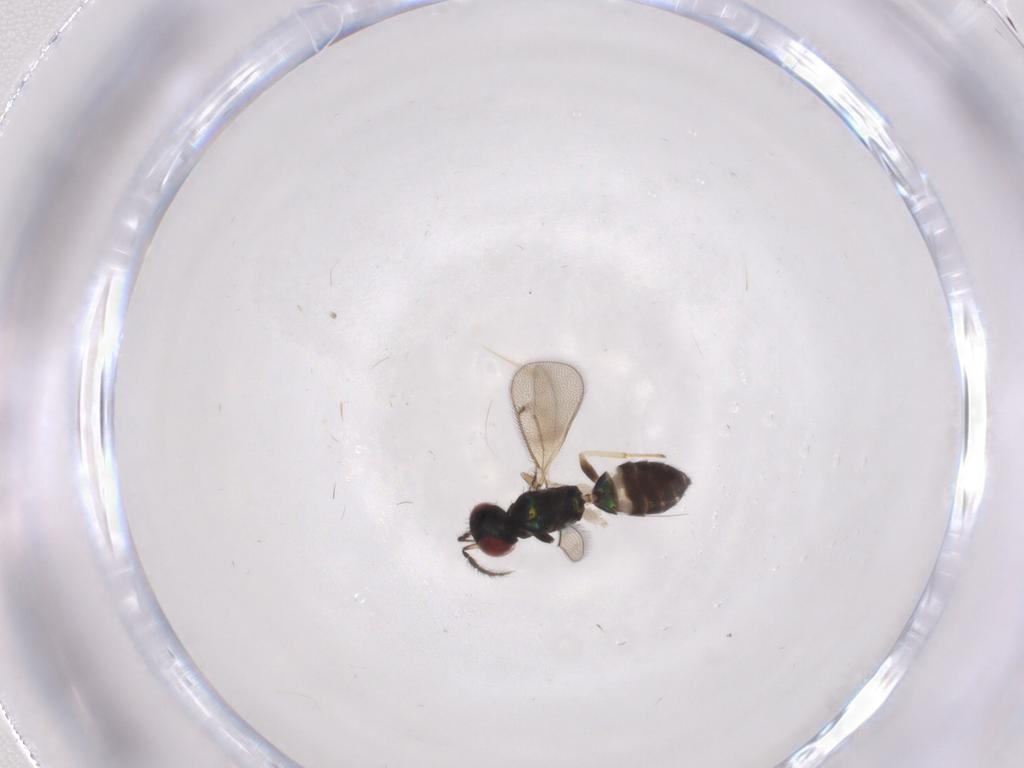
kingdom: Animalia
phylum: Arthropoda
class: Insecta
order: Hymenoptera
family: Eulophidae
